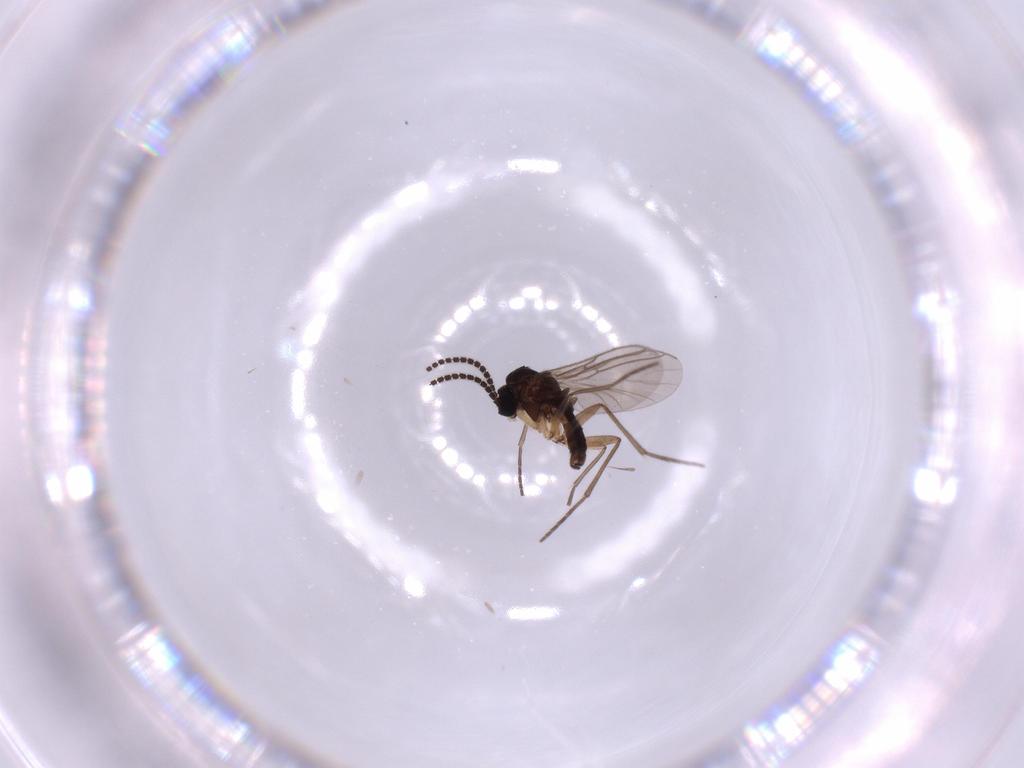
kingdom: Animalia
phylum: Arthropoda
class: Insecta
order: Diptera
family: Sciaridae
